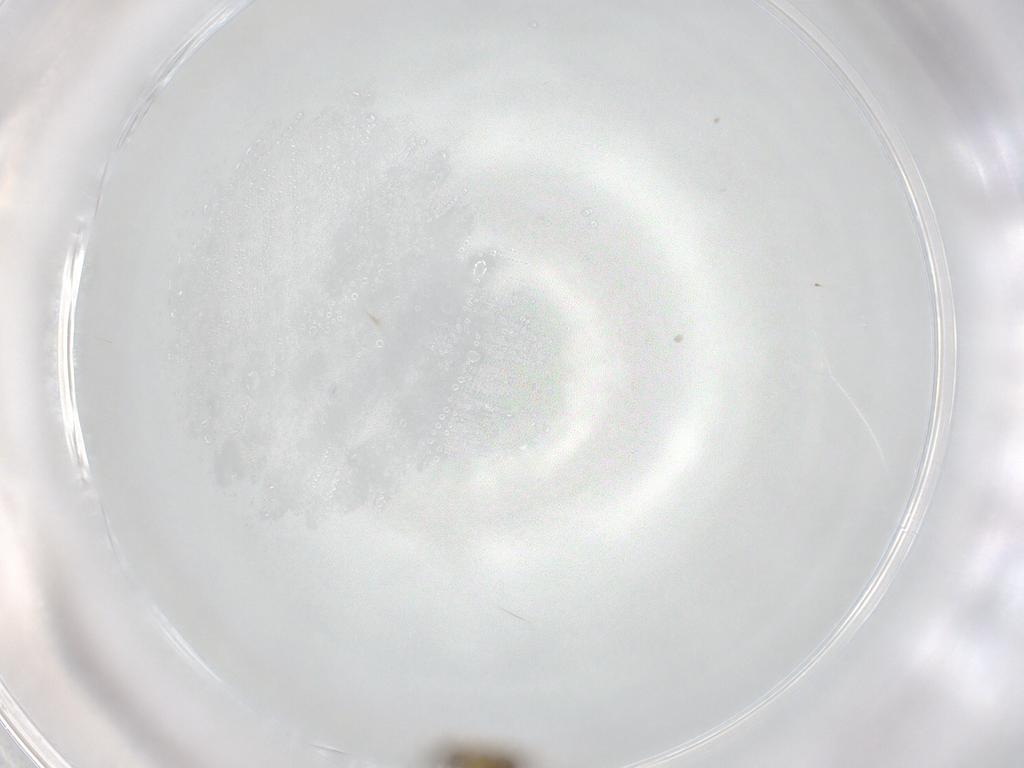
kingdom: Animalia
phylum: Arthropoda
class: Insecta
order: Diptera
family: Chironomidae
